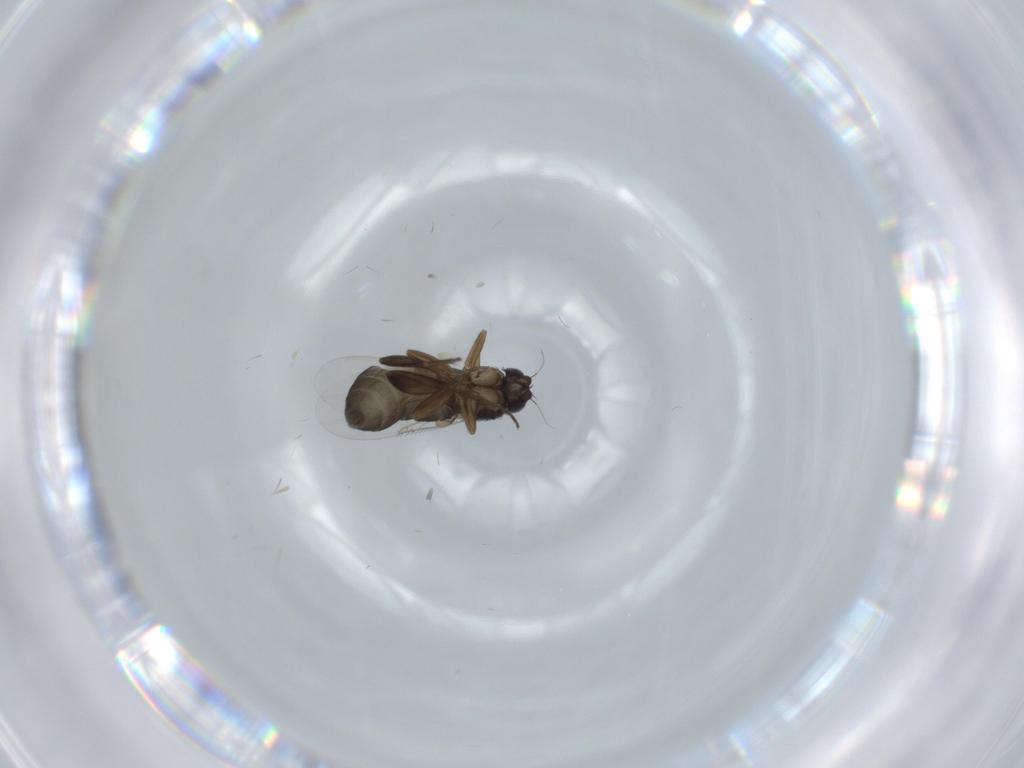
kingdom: Animalia
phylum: Arthropoda
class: Insecta
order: Diptera
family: Phoridae
